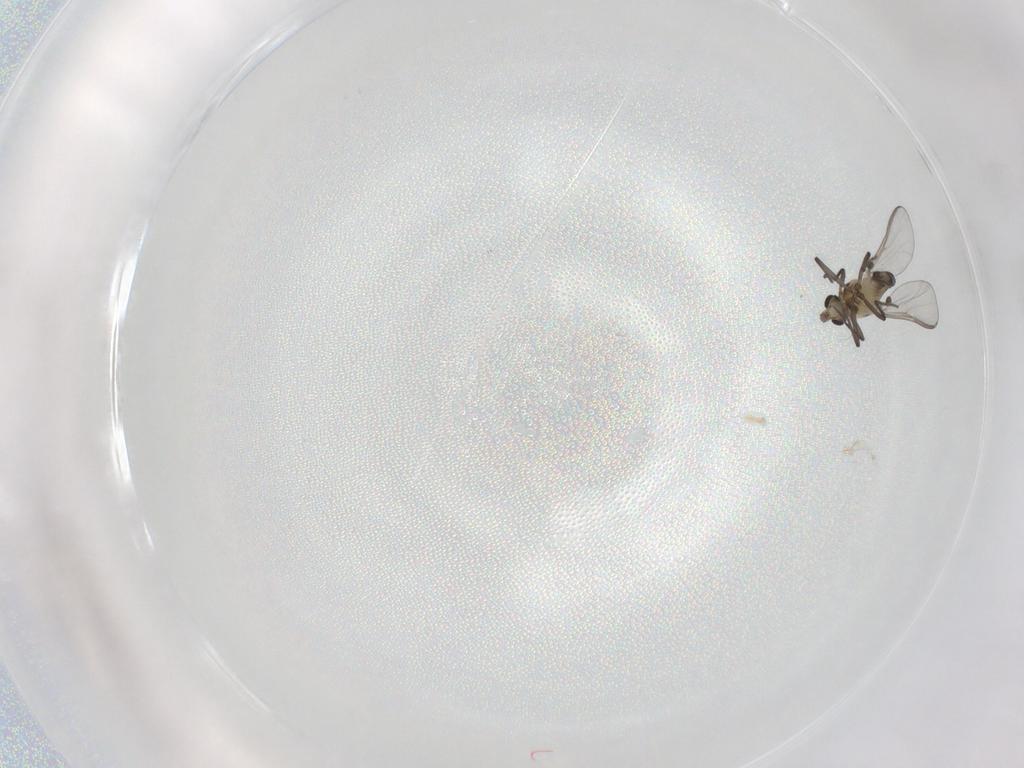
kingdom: Animalia
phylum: Arthropoda
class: Insecta
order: Diptera
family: Chironomidae
